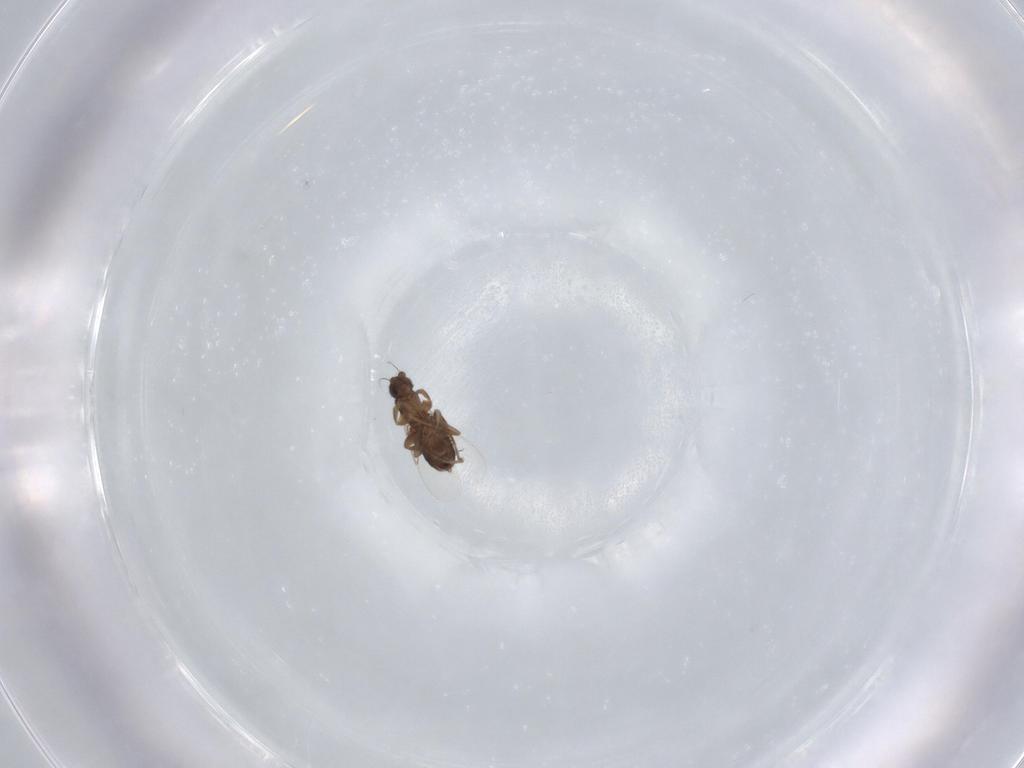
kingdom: Animalia
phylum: Arthropoda
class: Insecta
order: Diptera
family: Phoridae
